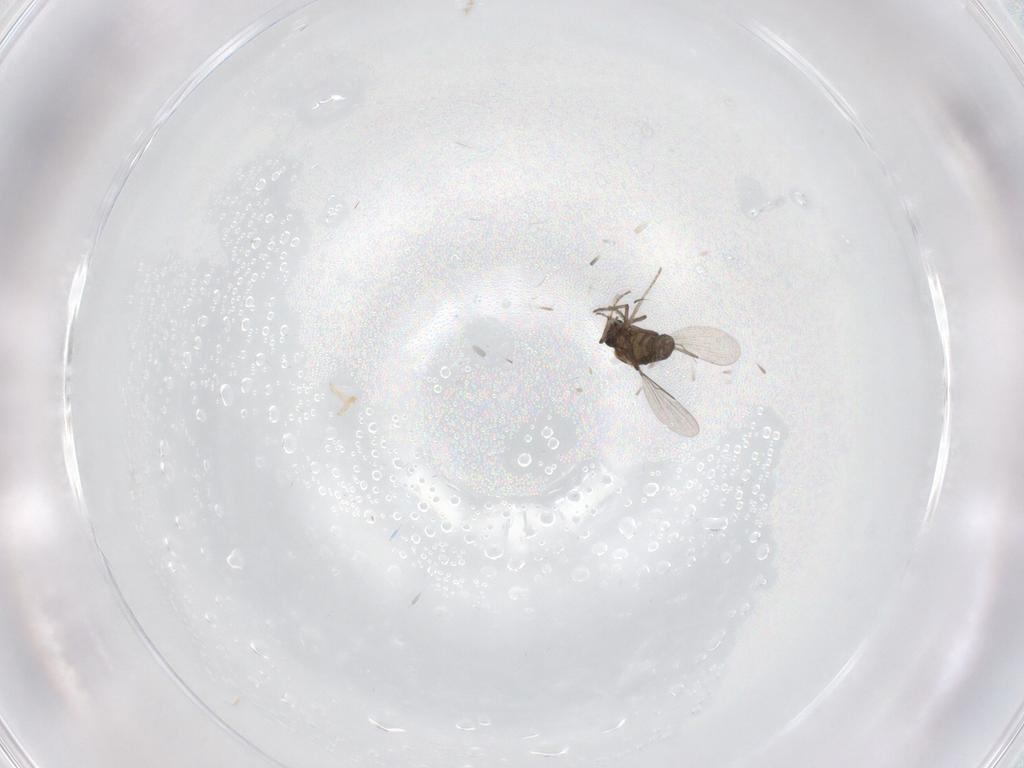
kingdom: Animalia
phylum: Arthropoda
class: Insecta
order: Diptera
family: Ceratopogonidae
